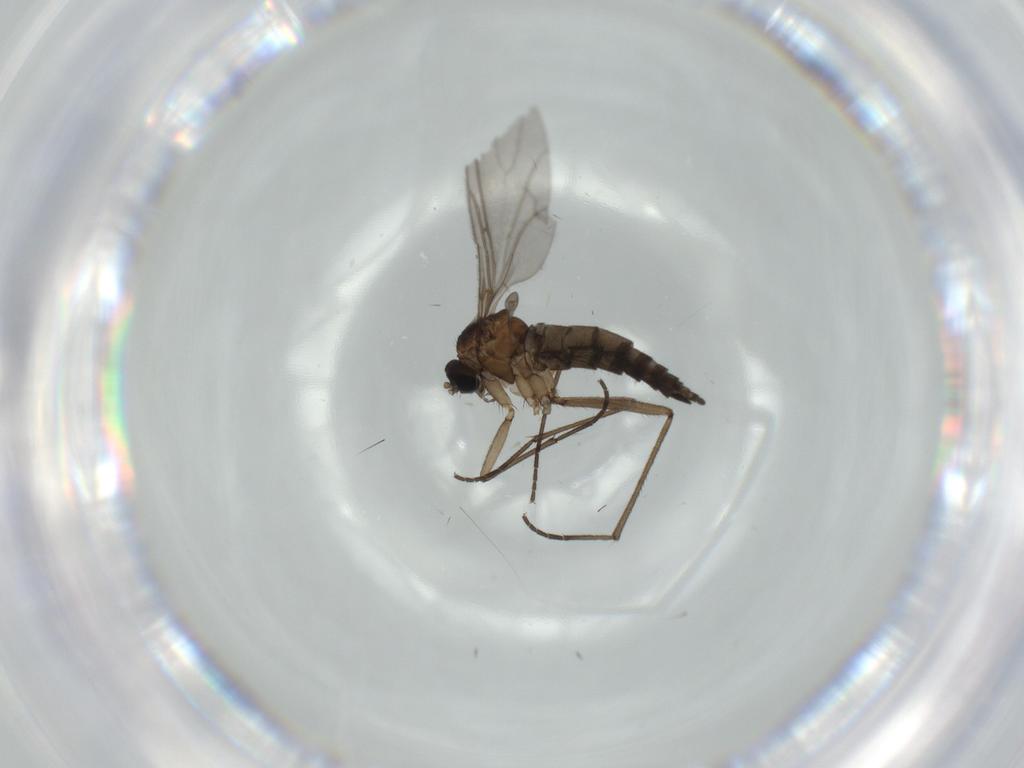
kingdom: Animalia
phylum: Arthropoda
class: Insecta
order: Diptera
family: Sciaridae
